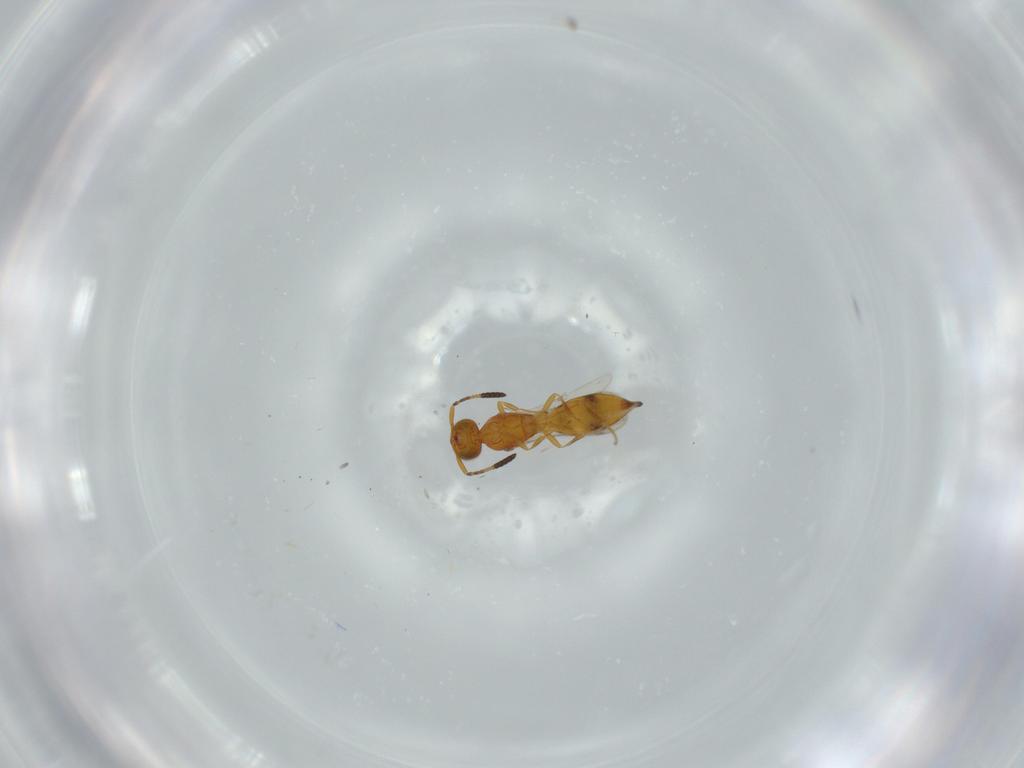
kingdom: Animalia
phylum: Arthropoda
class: Insecta
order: Hymenoptera
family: Scelionidae
